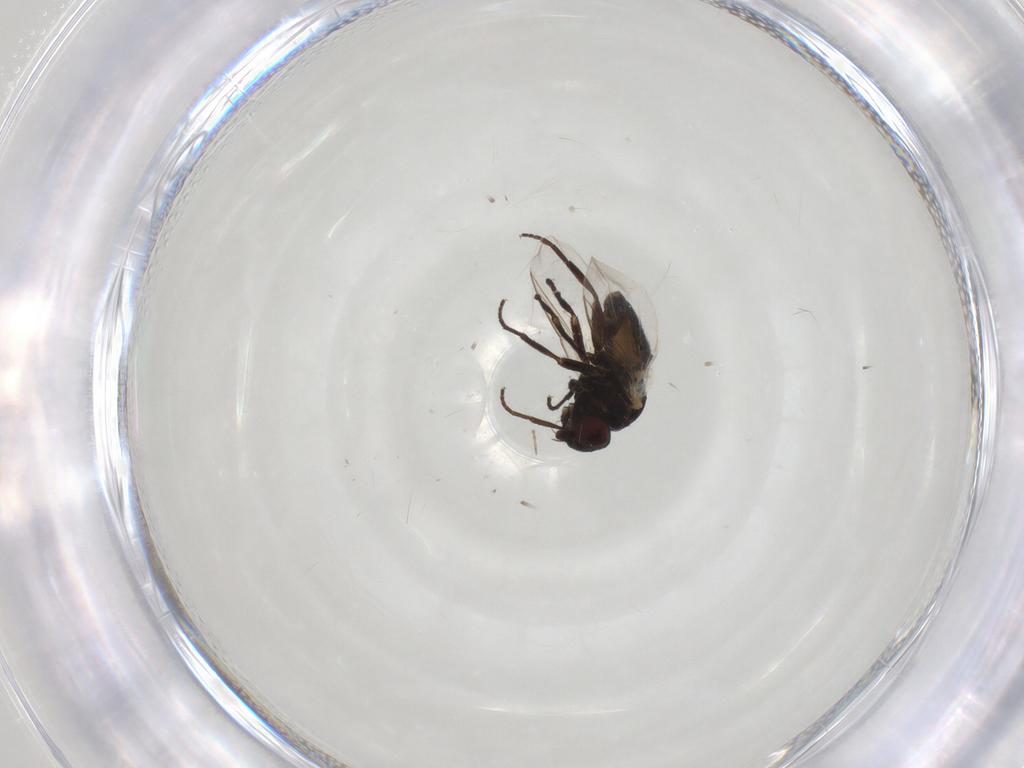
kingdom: Animalia
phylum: Arthropoda
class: Insecta
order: Diptera
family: Agromyzidae
